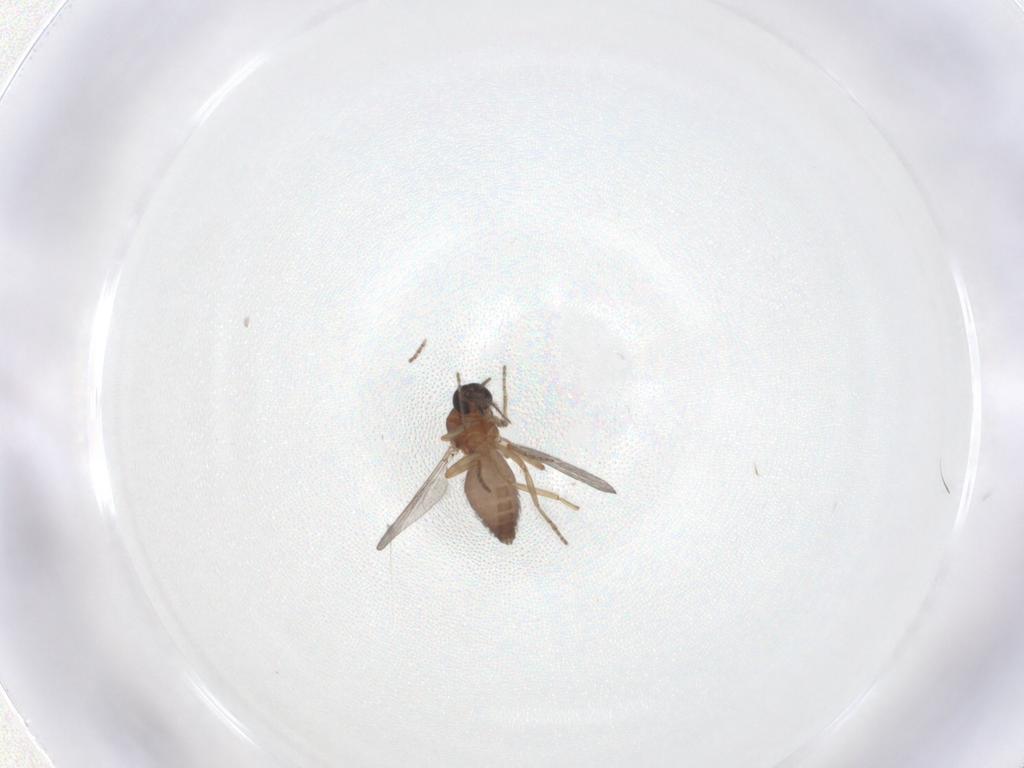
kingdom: Animalia
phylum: Arthropoda
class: Insecta
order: Diptera
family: Ceratopogonidae
